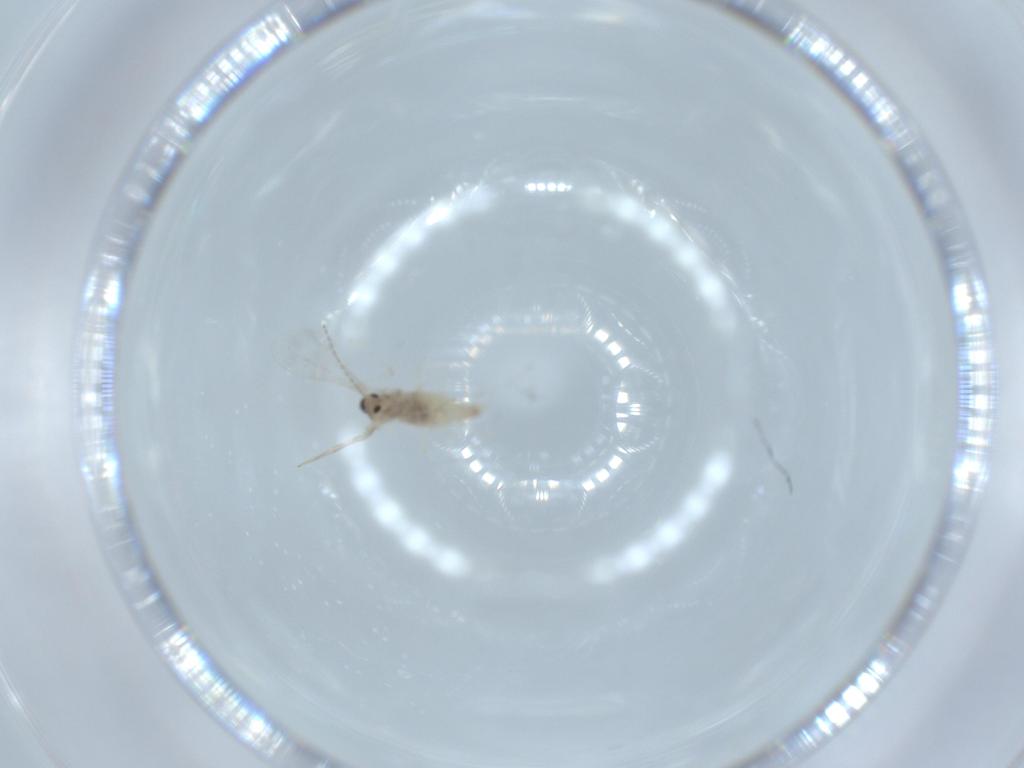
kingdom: Animalia
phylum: Arthropoda
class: Insecta
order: Diptera
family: Cecidomyiidae
